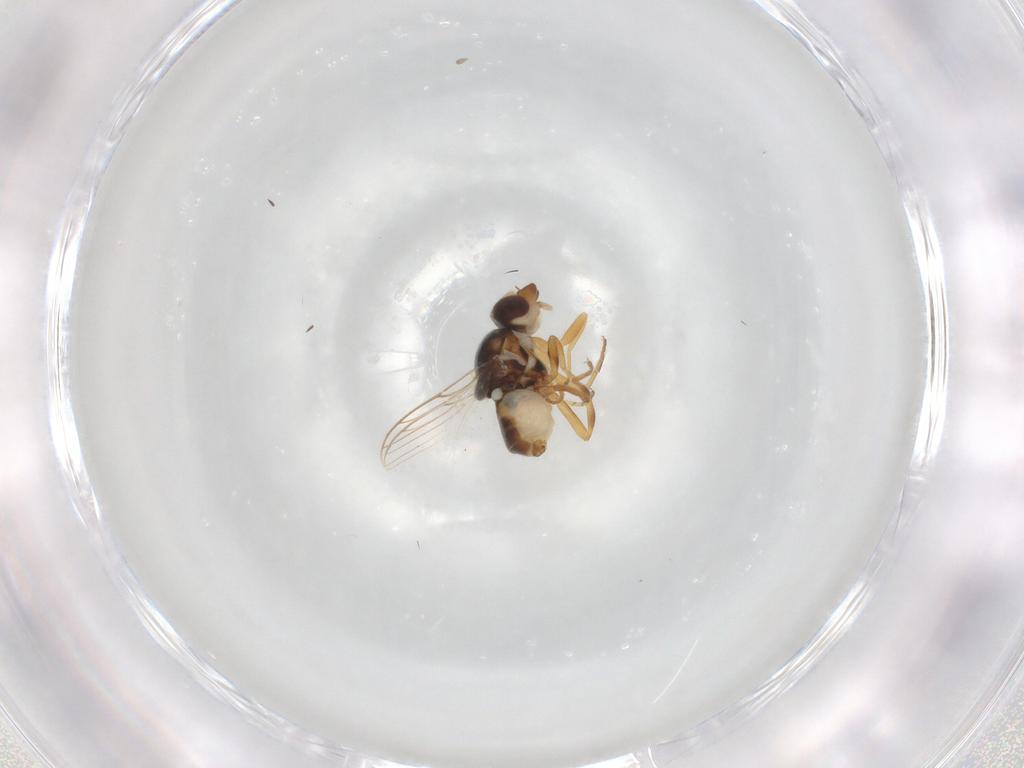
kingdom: Animalia
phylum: Arthropoda
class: Insecta
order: Diptera
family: Chloropidae
